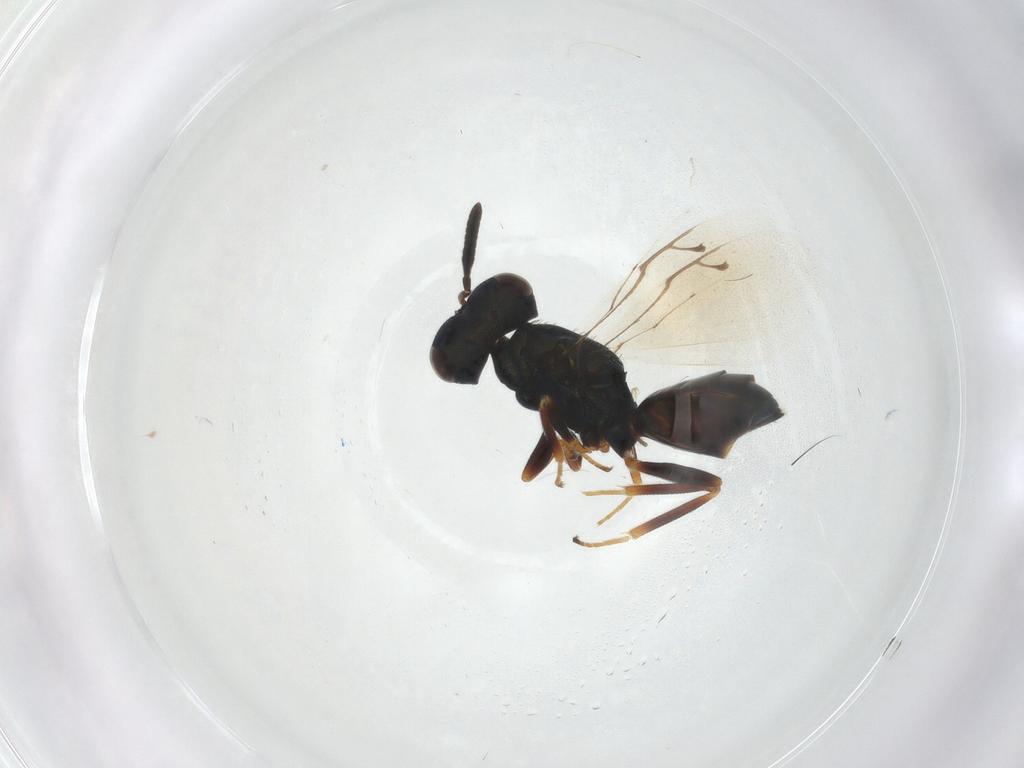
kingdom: Animalia
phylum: Arthropoda
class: Insecta
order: Hymenoptera
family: Pteromalidae
